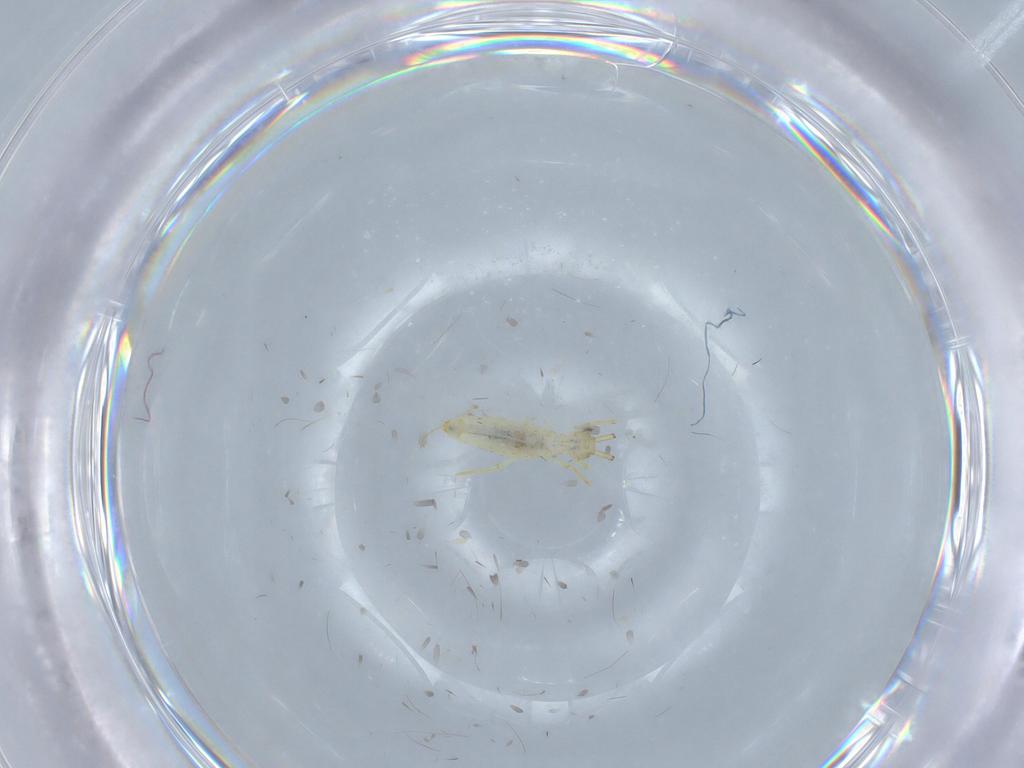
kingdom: Animalia
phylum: Arthropoda
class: Collembola
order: Entomobryomorpha
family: Paronellidae
